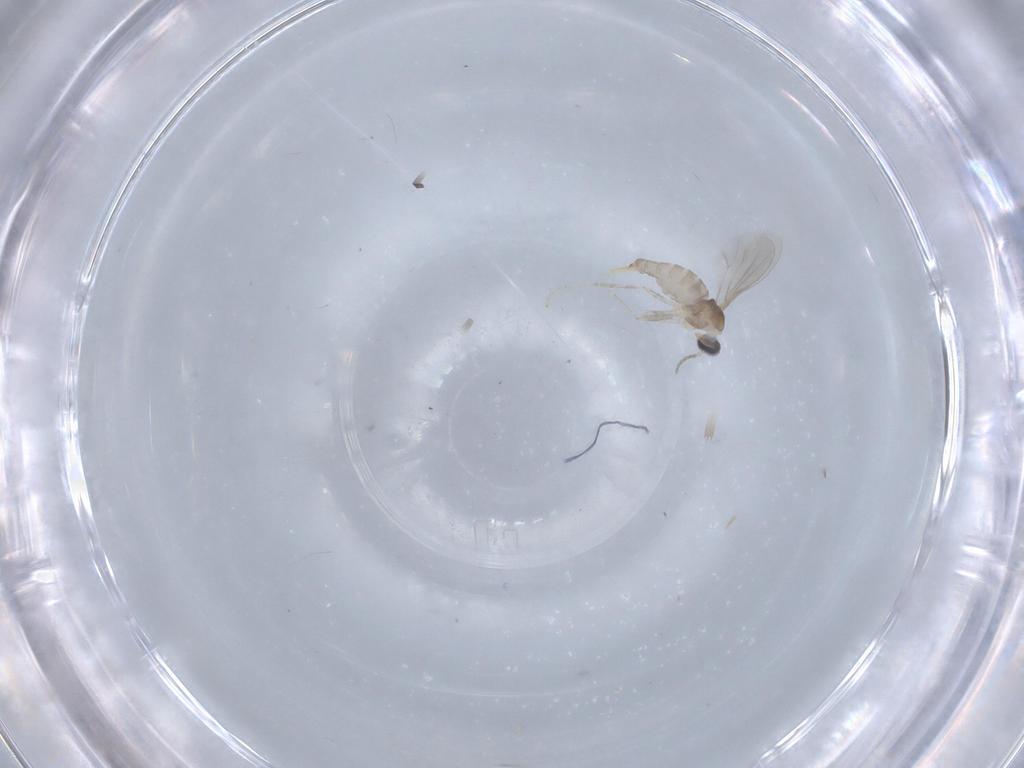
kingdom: Animalia
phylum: Arthropoda
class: Insecta
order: Diptera
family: Cecidomyiidae
